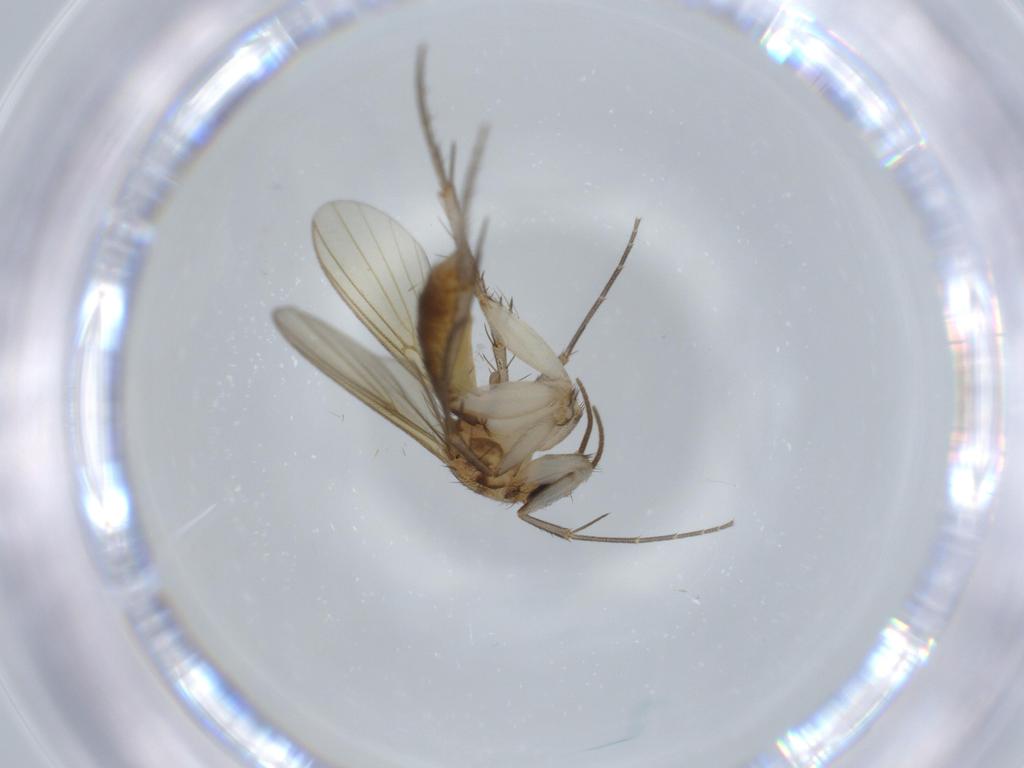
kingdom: Animalia
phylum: Arthropoda
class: Insecta
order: Diptera
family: Mycetophilidae
